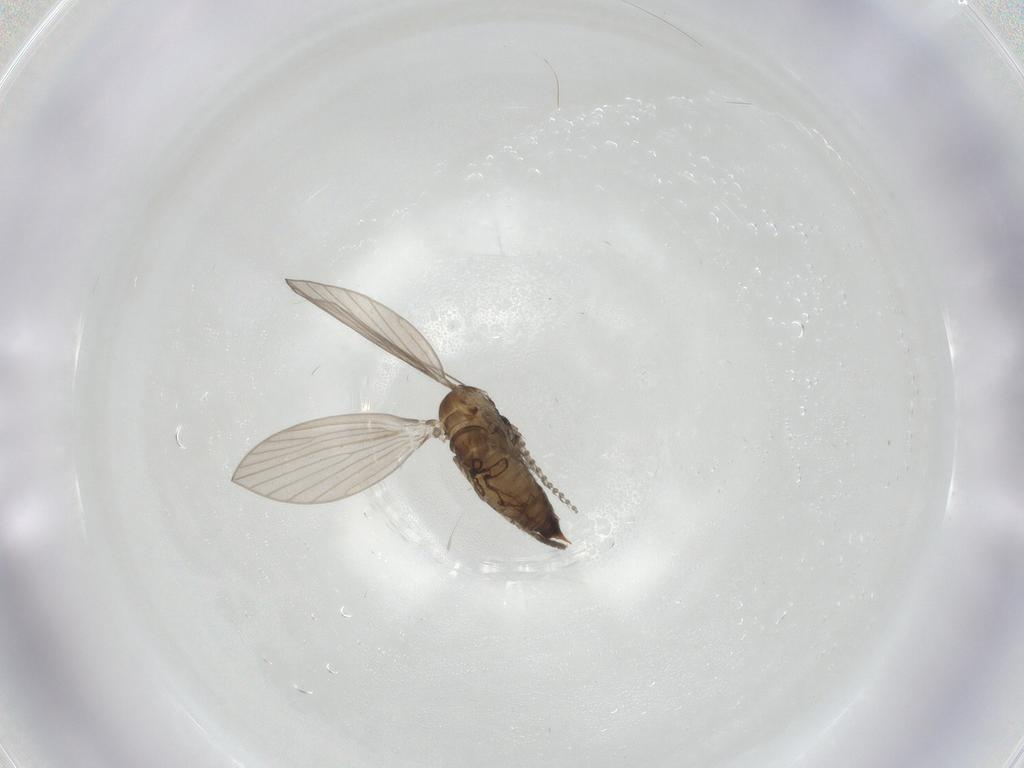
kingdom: Animalia
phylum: Arthropoda
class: Insecta
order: Diptera
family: Psychodidae
